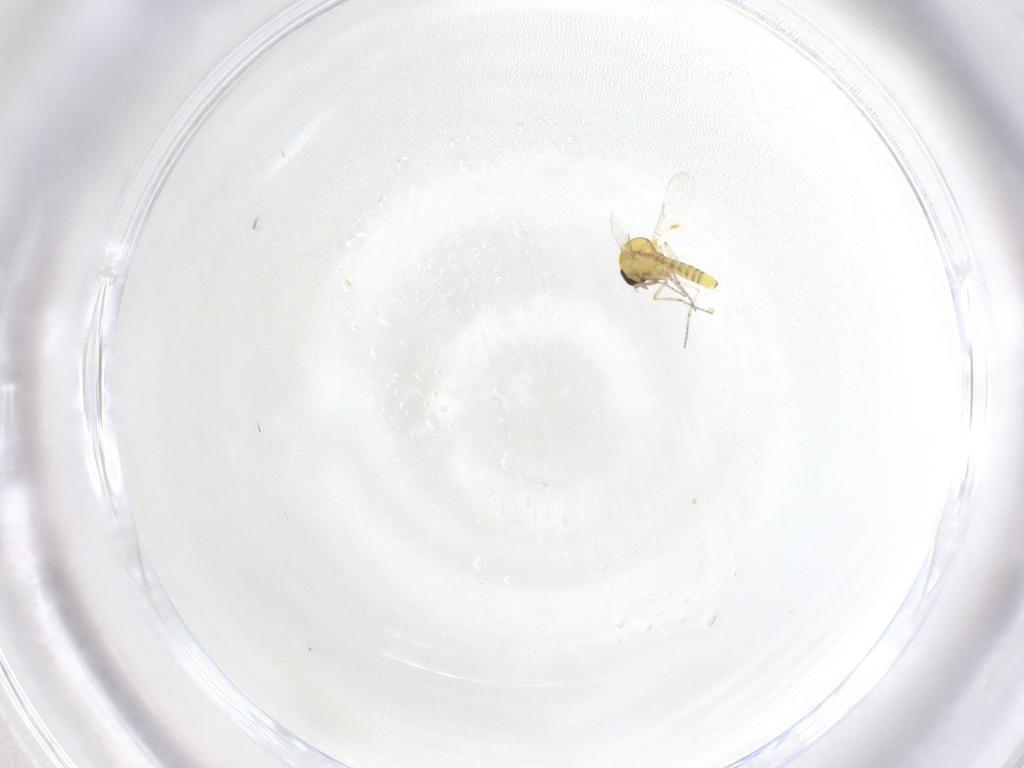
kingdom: Animalia
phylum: Arthropoda
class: Insecta
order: Diptera
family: Ceratopogonidae
